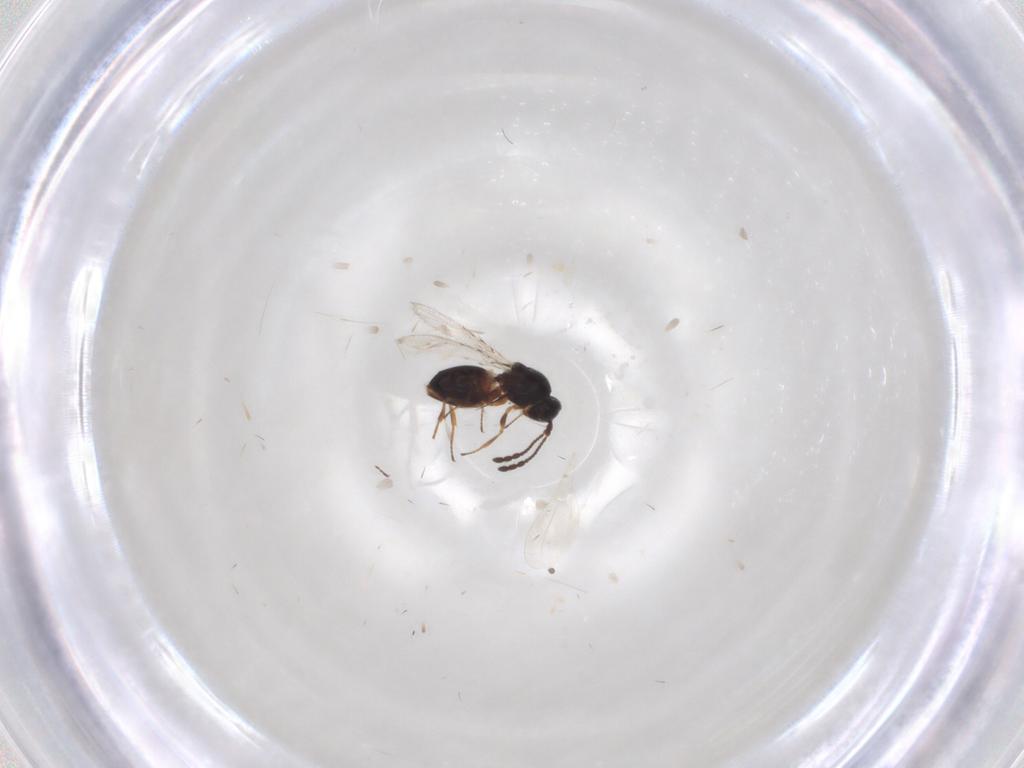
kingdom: Animalia
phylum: Arthropoda
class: Insecta
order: Hymenoptera
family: Figitidae
